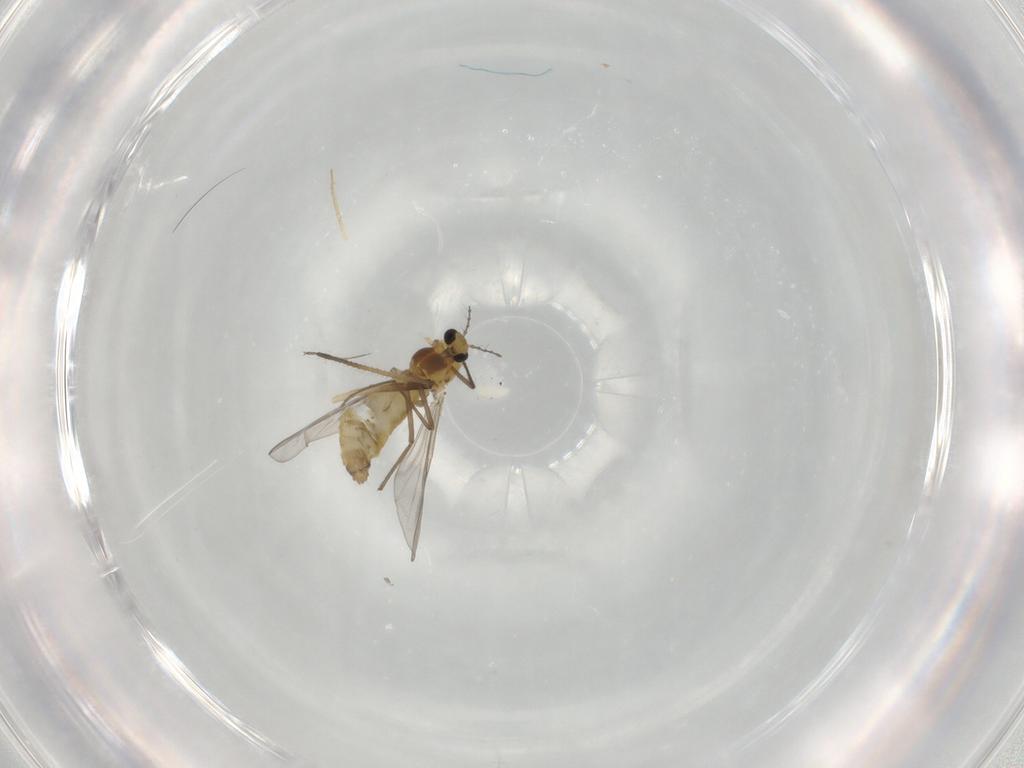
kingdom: Animalia
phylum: Arthropoda
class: Insecta
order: Diptera
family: Chironomidae
